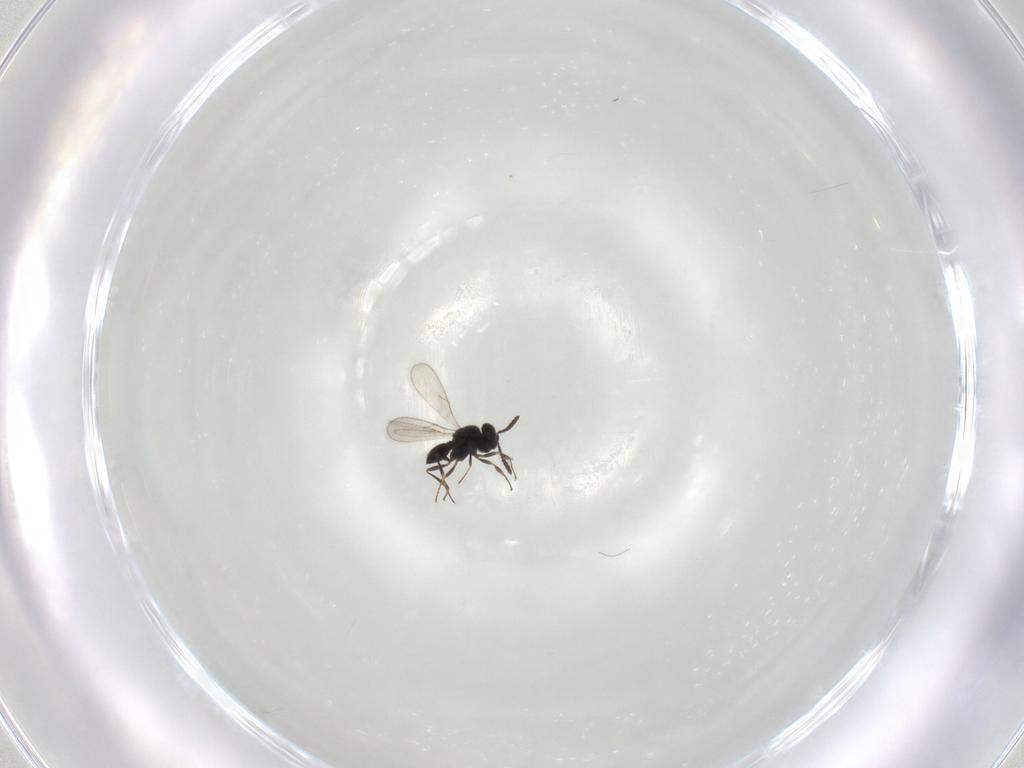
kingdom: Animalia
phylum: Arthropoda
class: Insecta
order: Hymenoptera
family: Scelionidae
